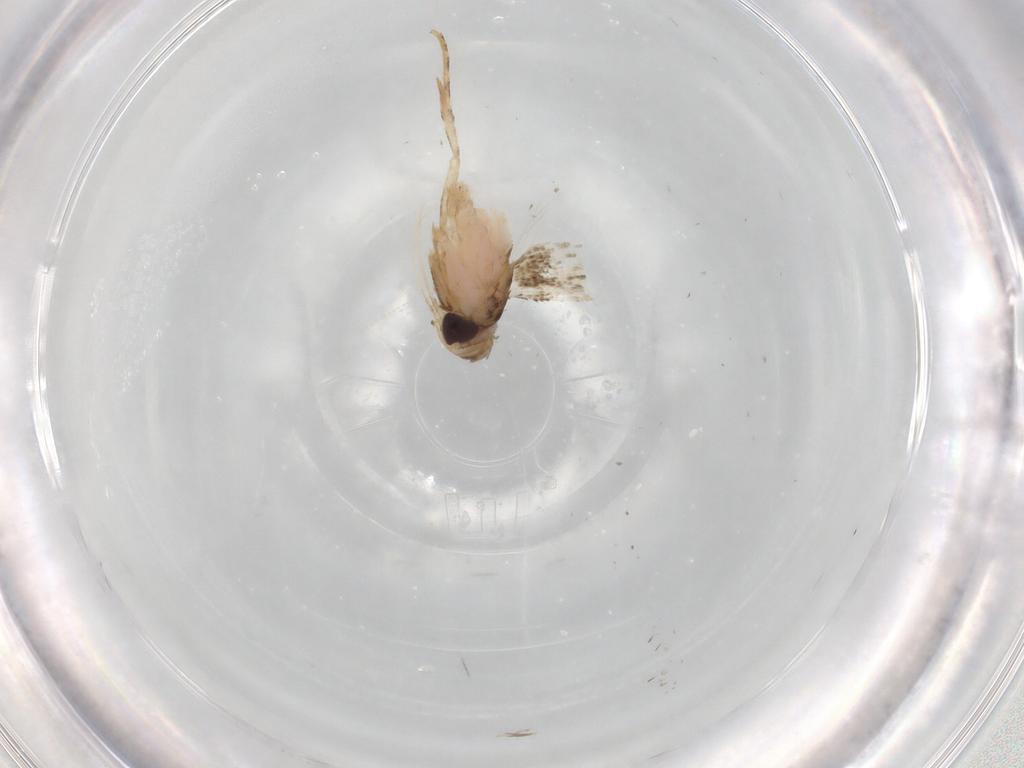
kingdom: Animalia
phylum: Arthropoda
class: Insecta
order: Lepidoptera
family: Cosmopterigidae
